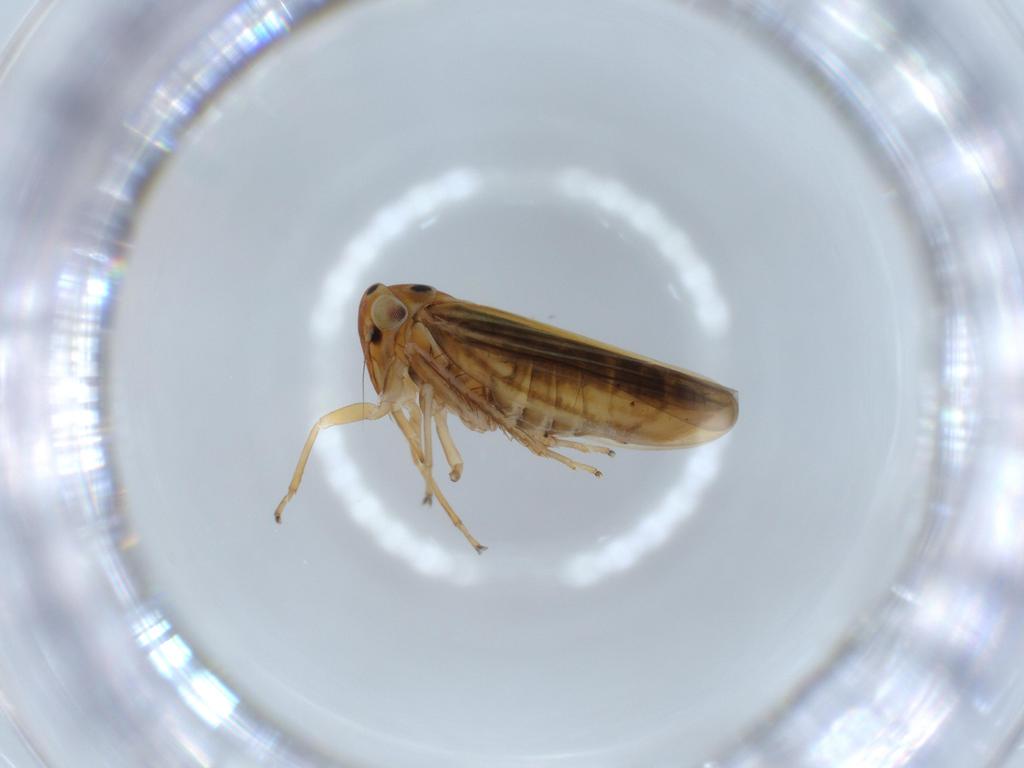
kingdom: Animalia
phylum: Arthropoda
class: Insecta
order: Hemiptera
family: Cicadellidae
